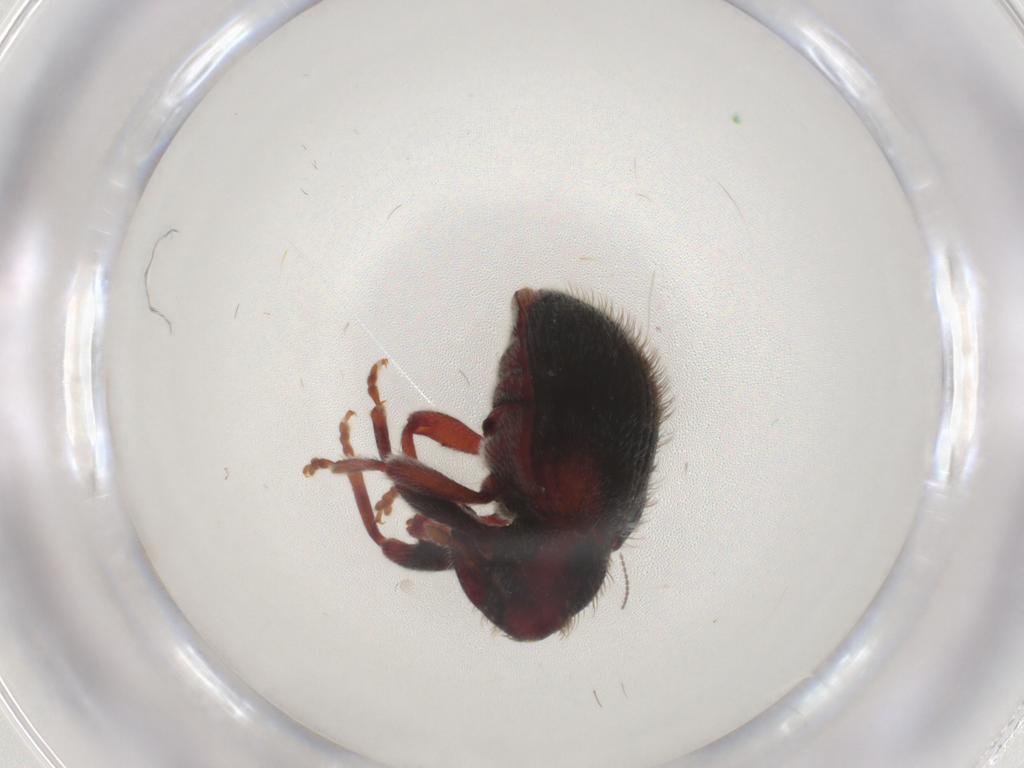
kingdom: Animalia
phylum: Arthropoda
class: Insecta
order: Coleoptera
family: Curculionidae
